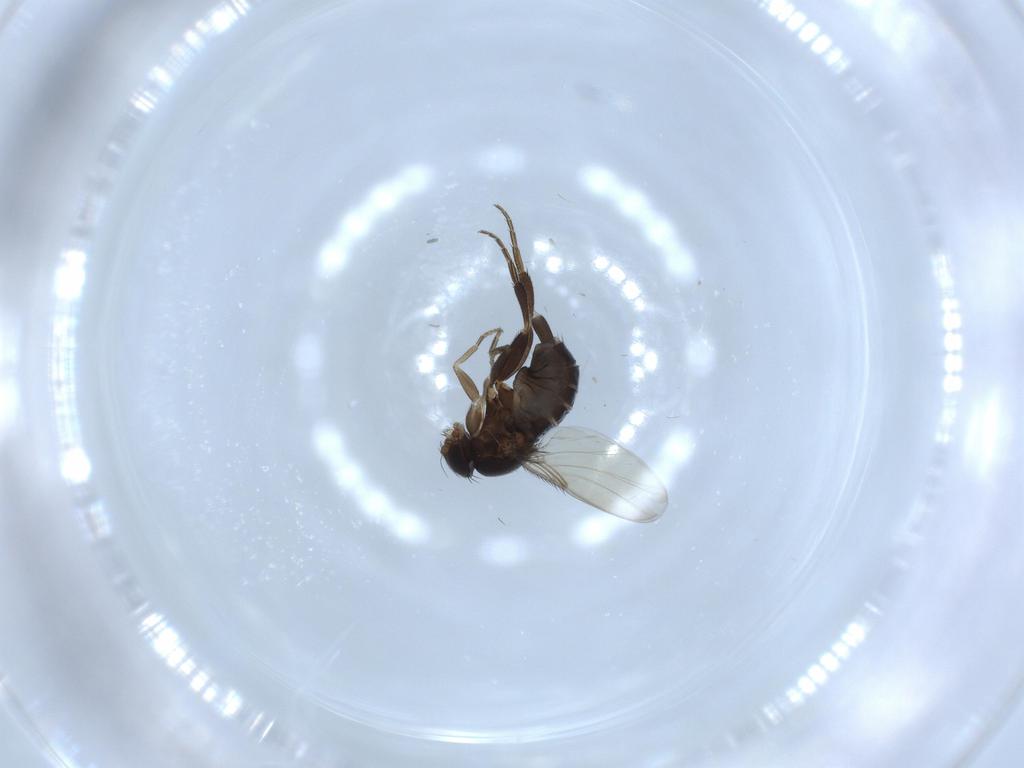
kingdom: Animalia
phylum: Arthropoda
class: Insecta
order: Diptera
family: Phoridae
